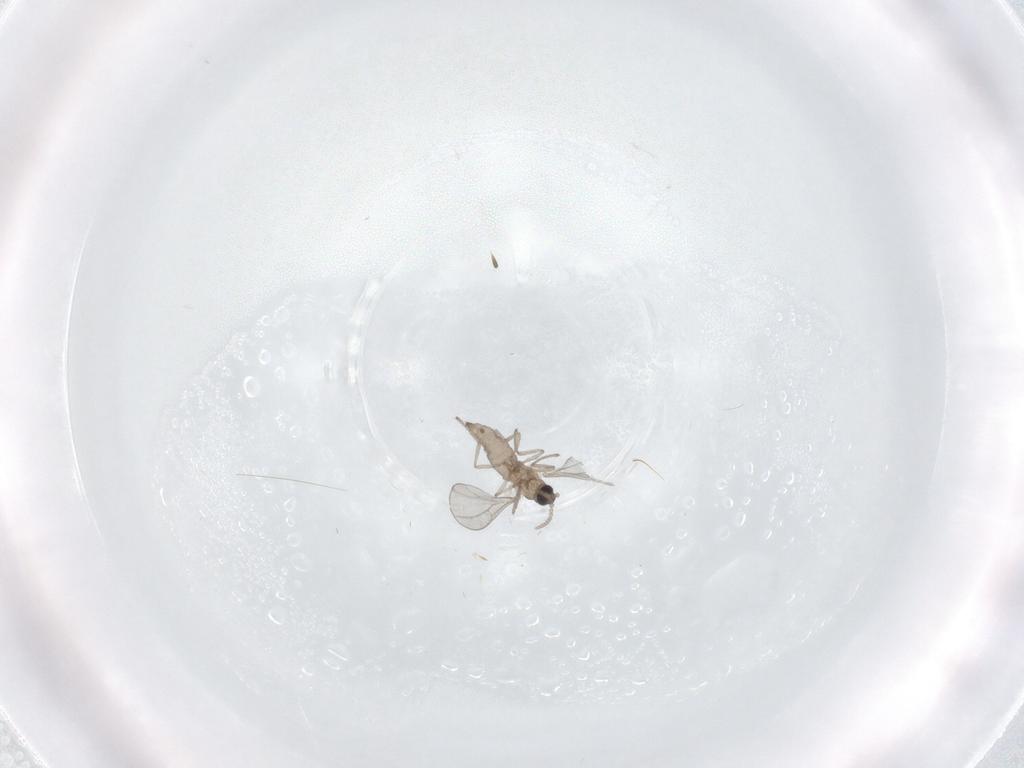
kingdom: Animalia
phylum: Arthropoda
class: Insecta
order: Diptera
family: Cecidomyiidae
